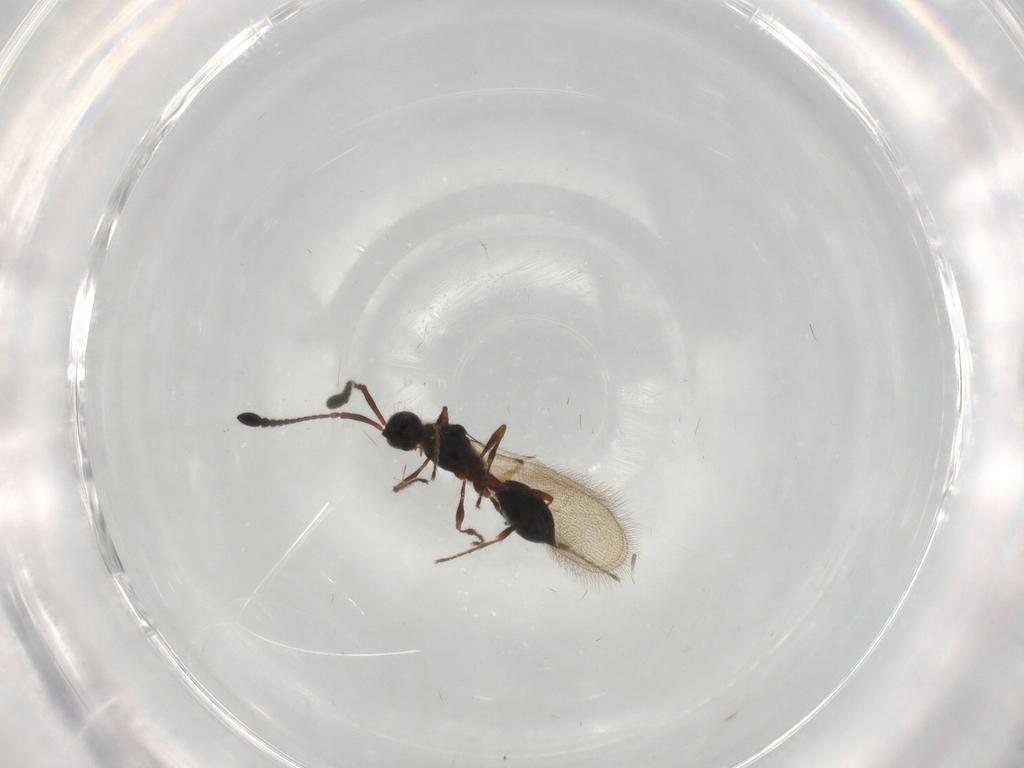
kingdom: Animalia
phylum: Arthropoda
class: Insecta
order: Hymenoptera
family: Diapriidae
